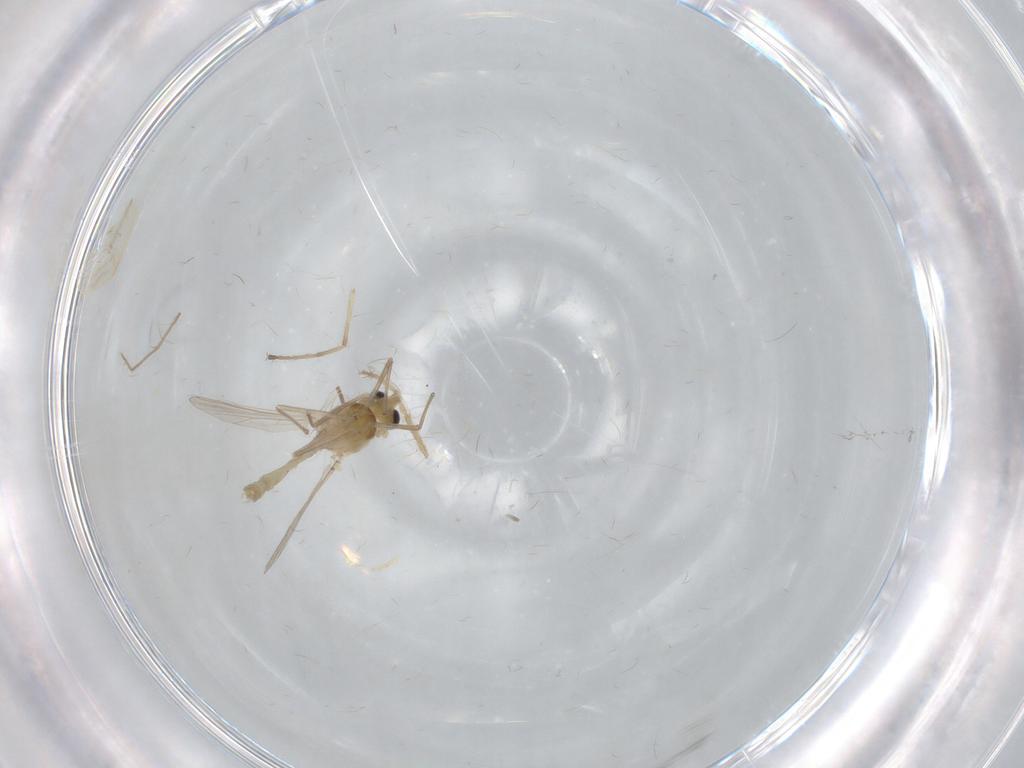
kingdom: Animalia
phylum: Arthropoda
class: Insecta
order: Diptera
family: Chironomidae
